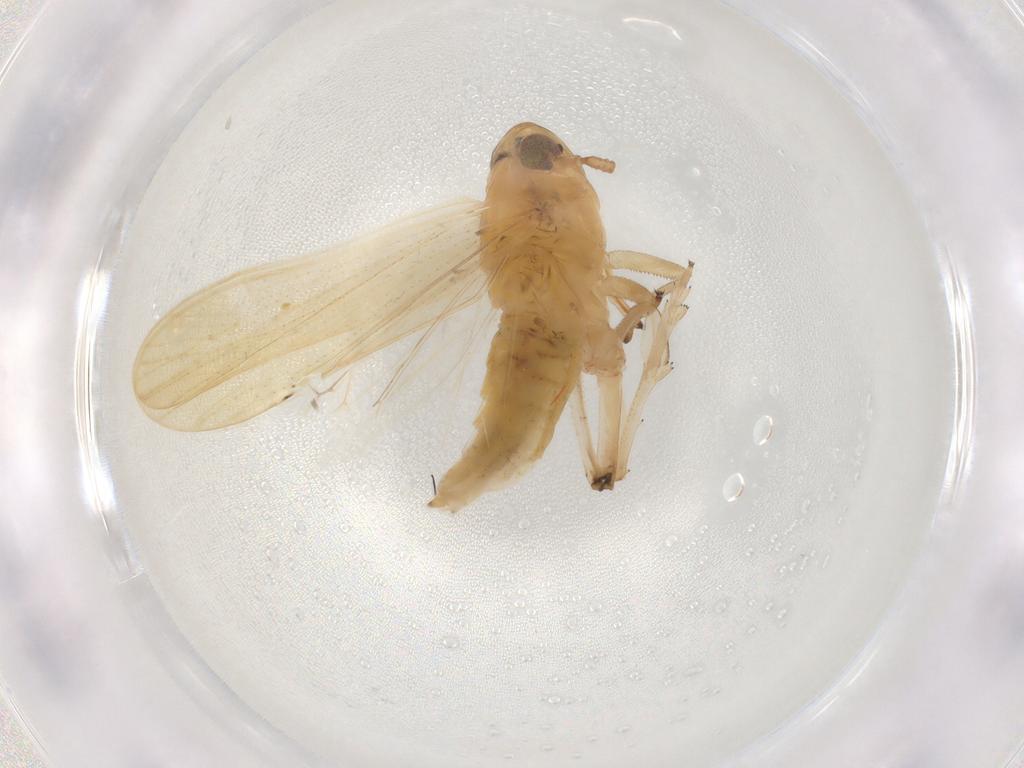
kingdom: Animalia
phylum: Arthropoda
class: Insecta
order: Hemiptera
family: Delphacidae
